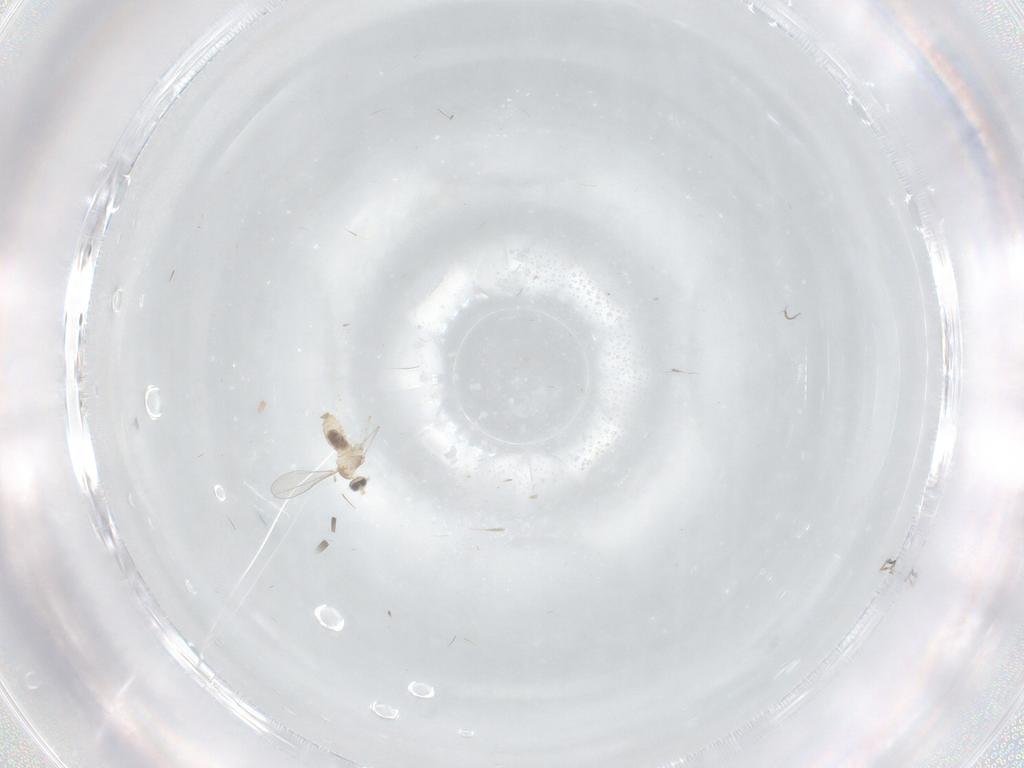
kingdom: Animalia
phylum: Arthropoda
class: Insecta
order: Diptera
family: Cecidomyiidae
